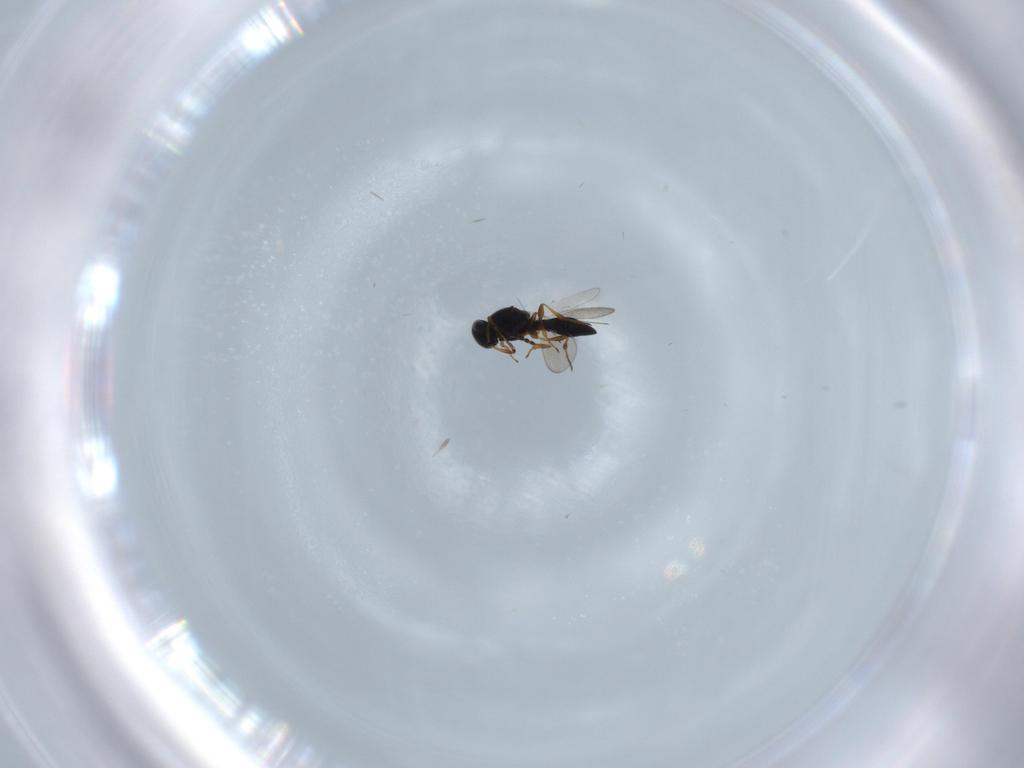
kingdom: Animalia
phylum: Arthropoda
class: Insecta
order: Hymenoptera
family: Platygastridae
